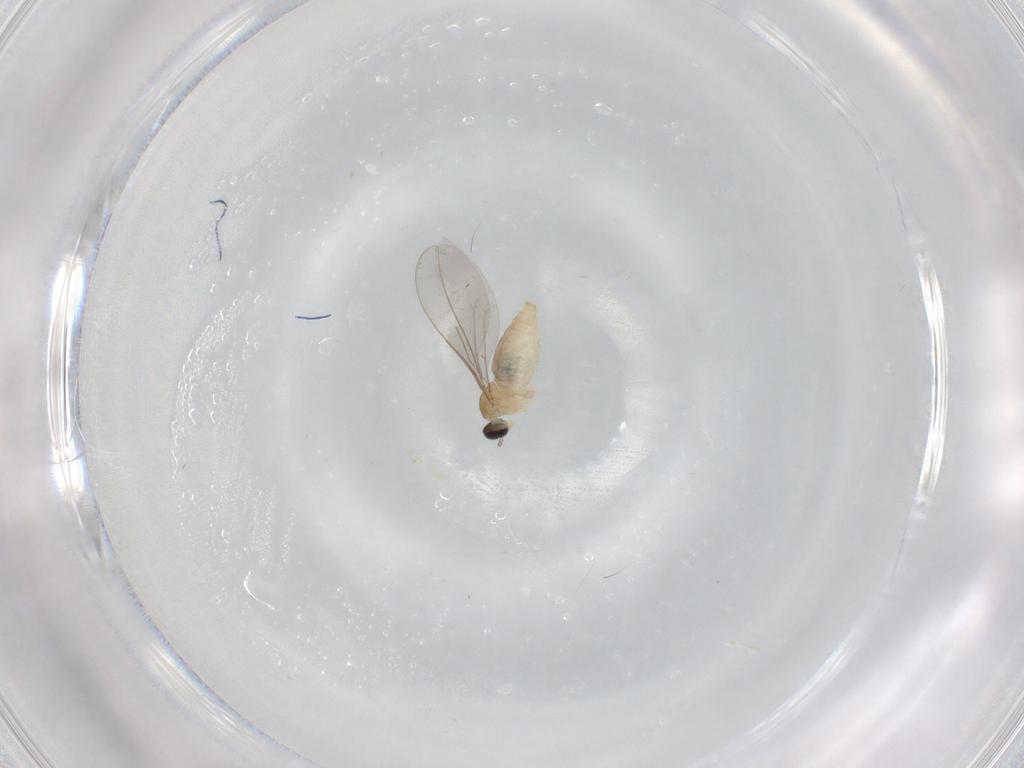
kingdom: Animalia
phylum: Arthropoda
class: Insecta
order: Diptera
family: Cecidomyiidae
